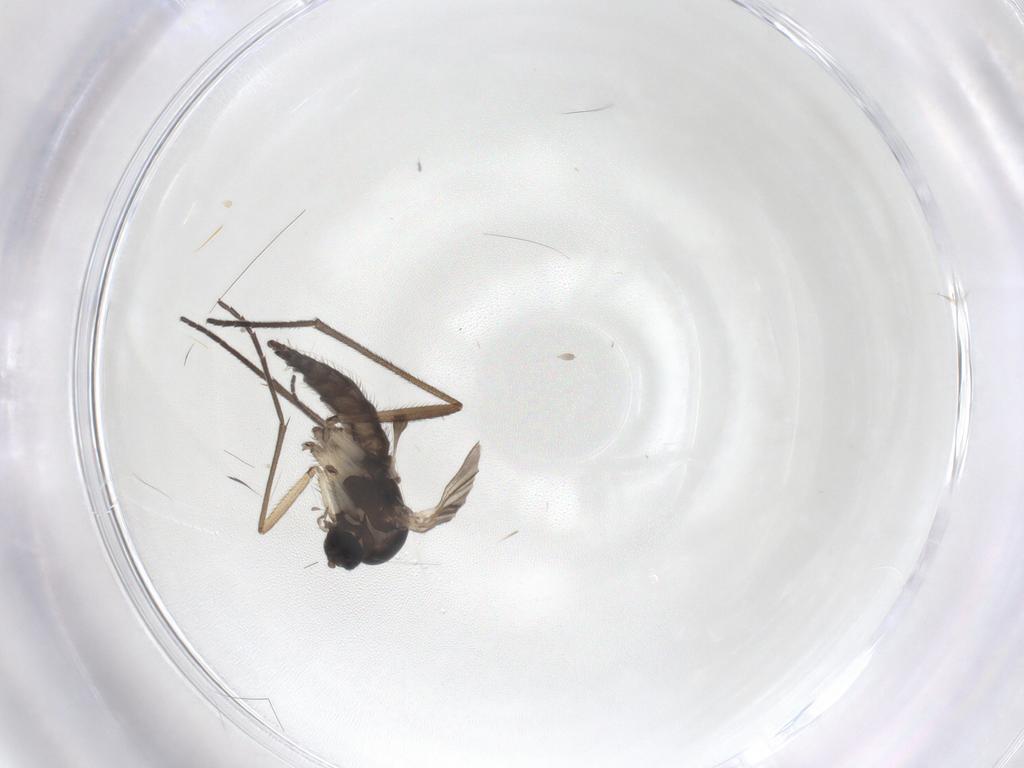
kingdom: Animalia
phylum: Arthropoda
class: Insecta
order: Diptera
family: Sciaridae
